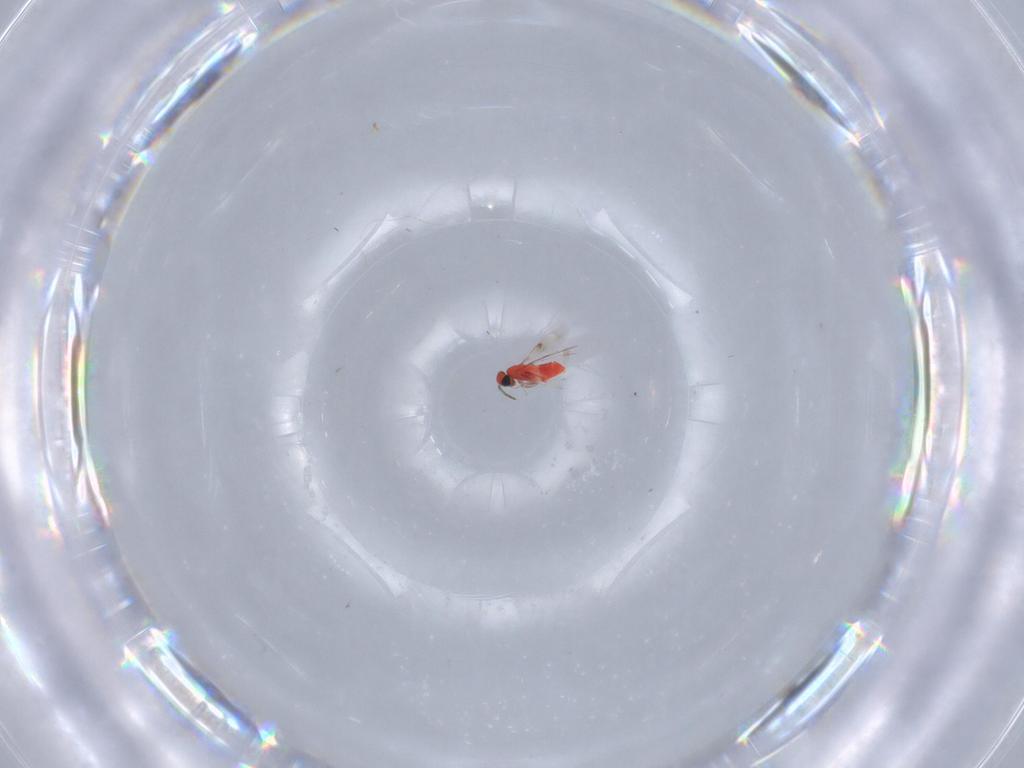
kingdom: Animalia
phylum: Arthropoda
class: Insecta
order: Hymenoptera
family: Trichogrammatidae
